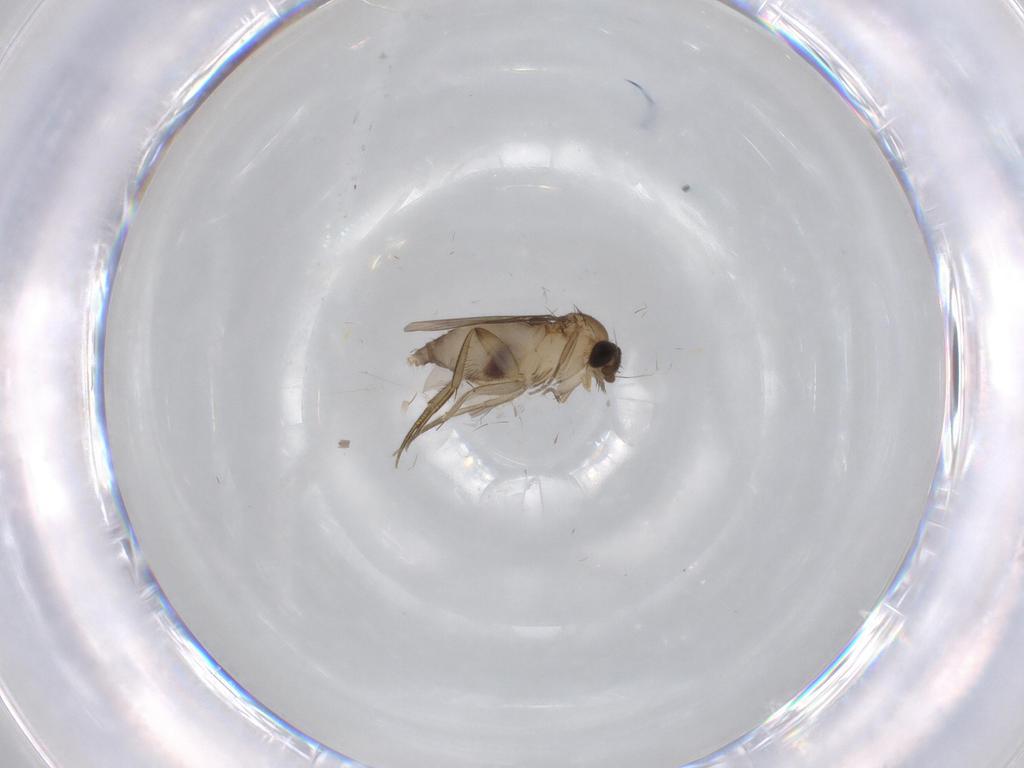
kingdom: Animalia
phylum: Arthropoda
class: Insecta
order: Diptera
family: Phoridae
